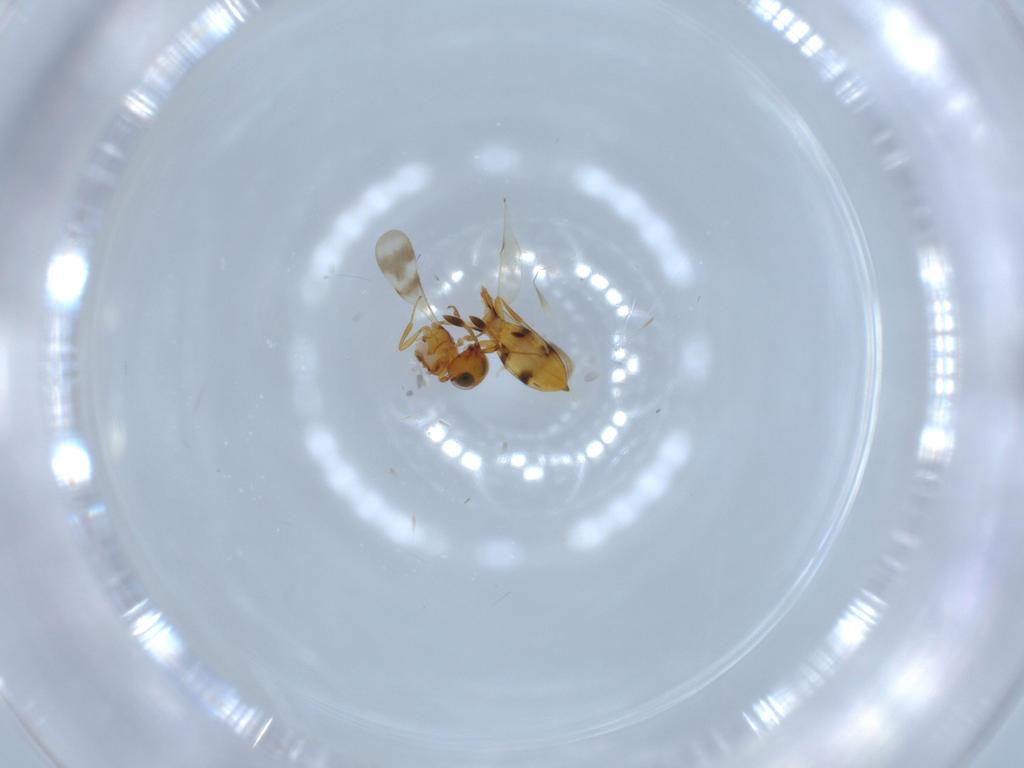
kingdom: Animalia
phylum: Arthropoda
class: Insecta
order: Hymenoptera
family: Scelionidae
